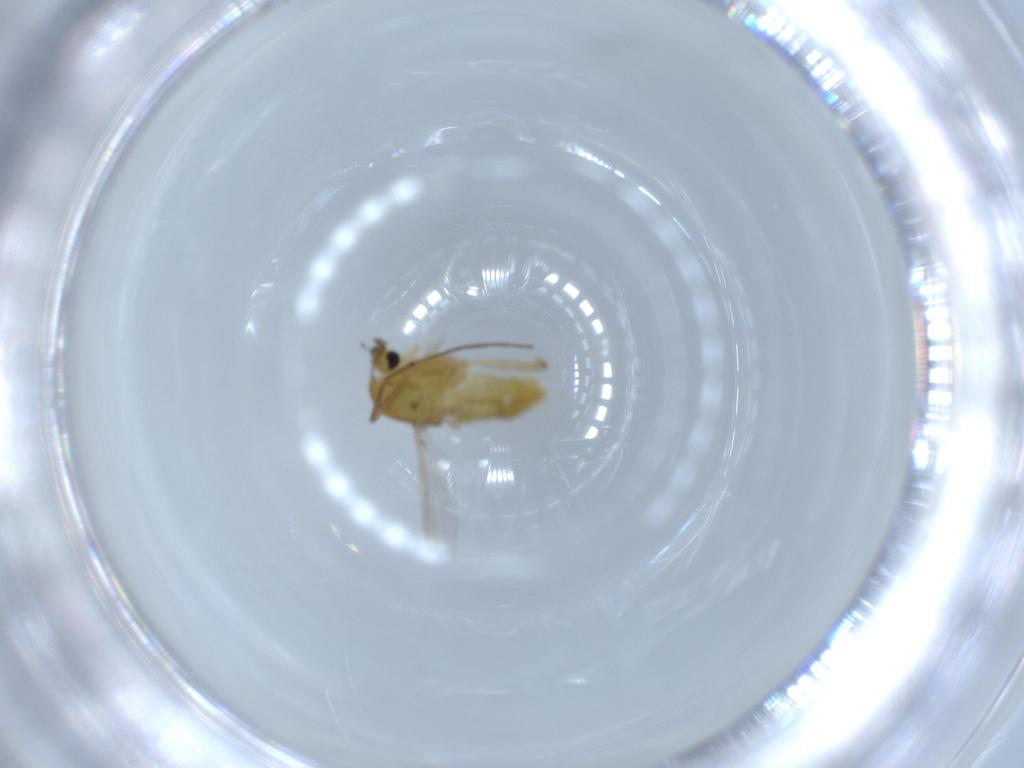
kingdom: Animalia
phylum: Arthropoda
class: Insecta
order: Diptera
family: Chironomidae
